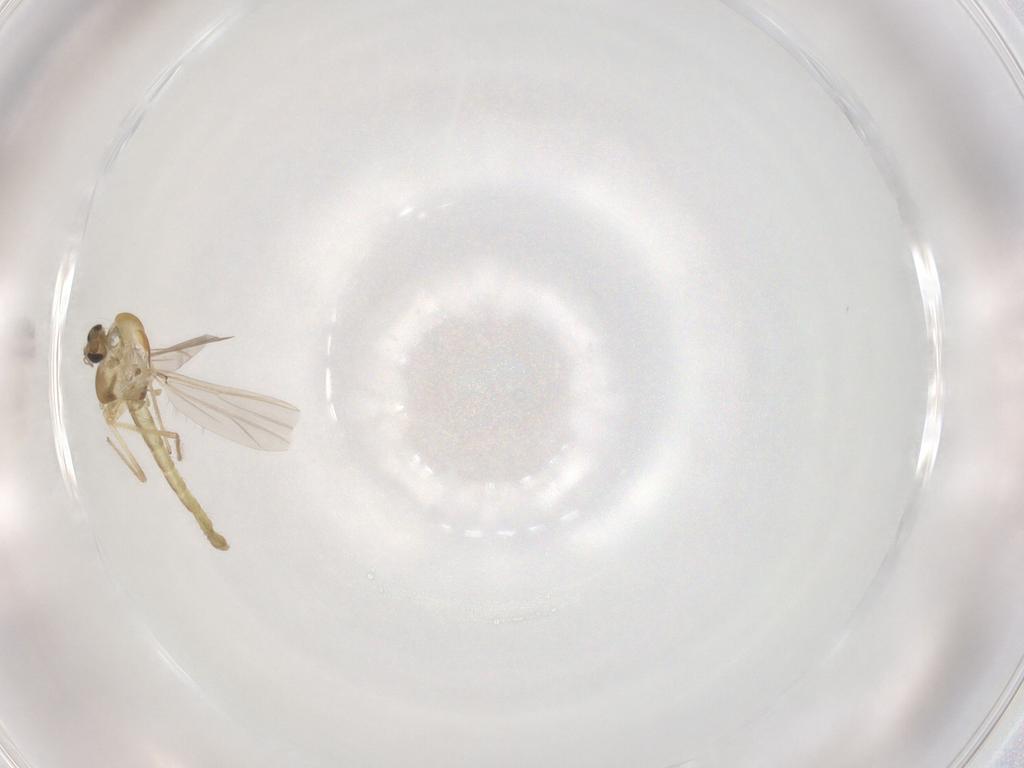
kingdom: Animalia
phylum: Arthropoda
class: Insecta
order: Diptera
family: Chironomidae
